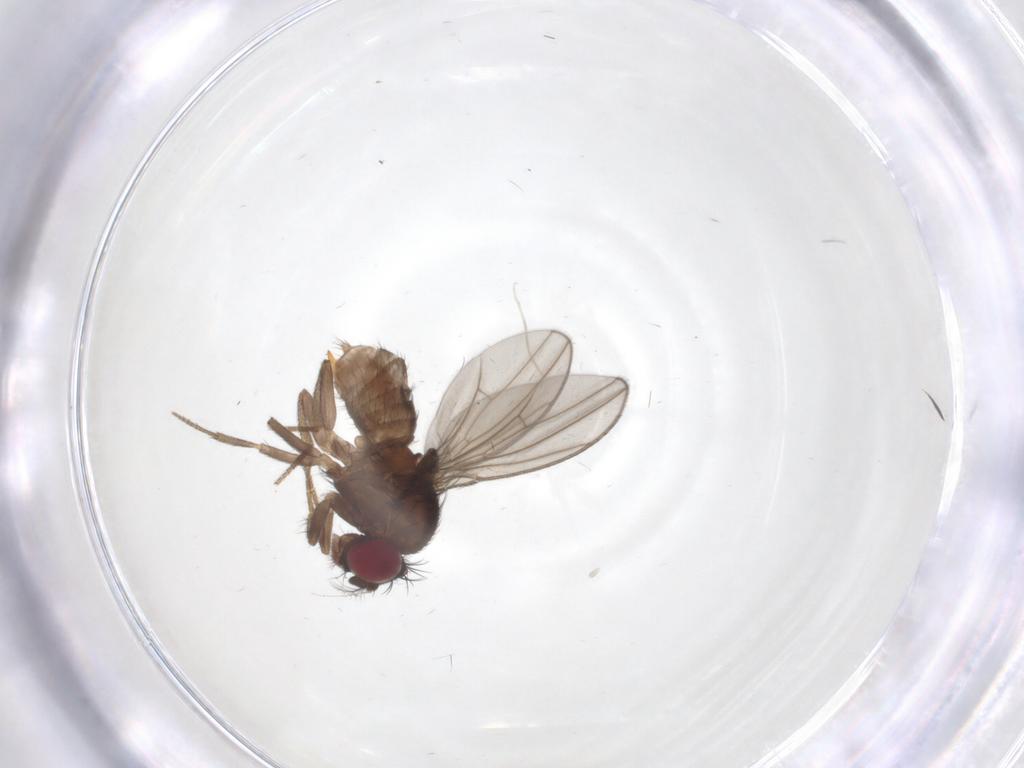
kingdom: Animalia
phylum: Arthropoda
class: Insecta
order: Diptera
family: Drosophilidae
